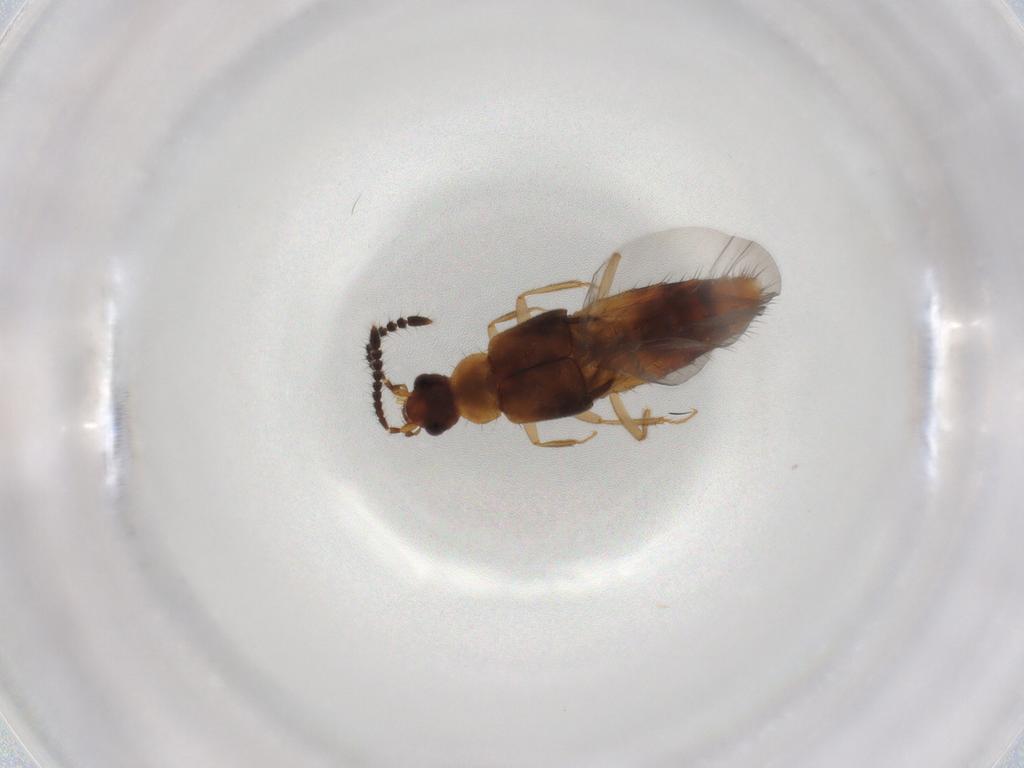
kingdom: Animalia
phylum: Arthropoda
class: Insecta
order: Coleoptera
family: Cantharidae
